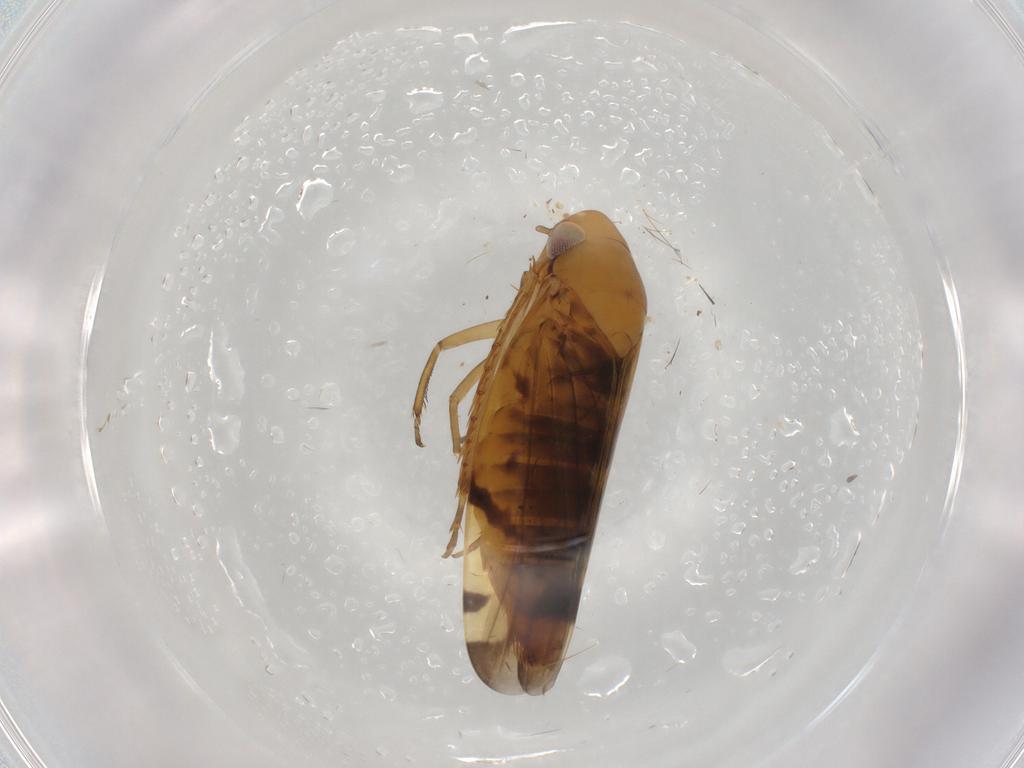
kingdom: Animalia
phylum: Arthropoda
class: Insecta
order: Hemiptera
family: Cicadellidae
